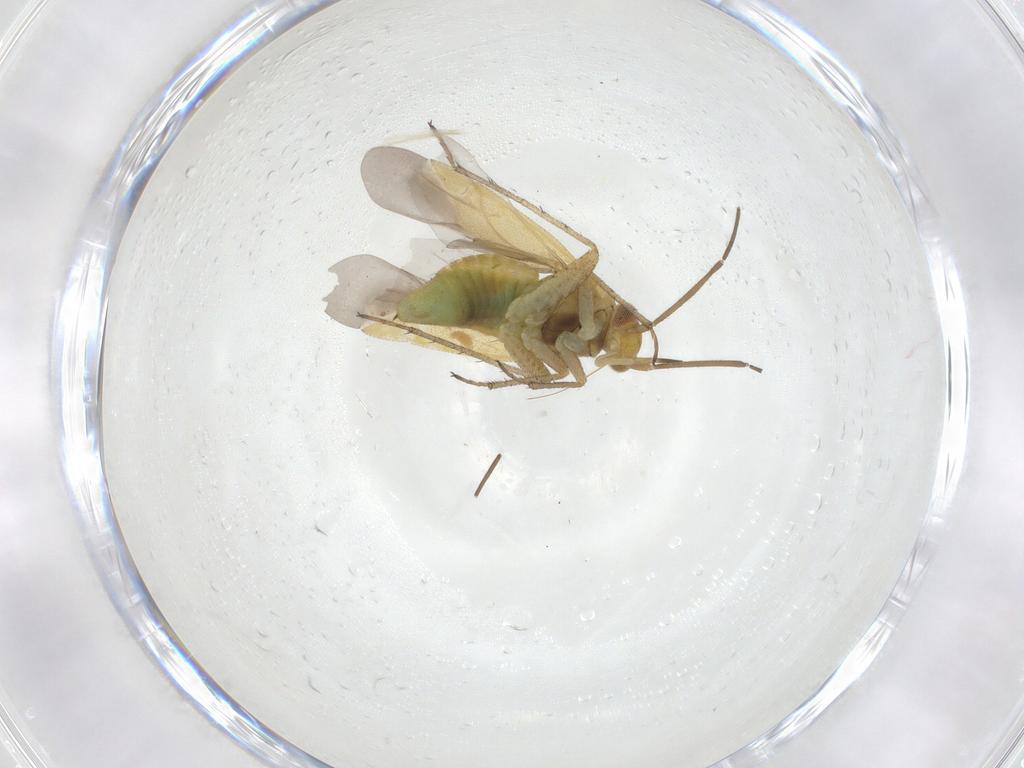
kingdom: Animalia
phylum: Arthropoda
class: Insecta
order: Hemiptera
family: Miridae
